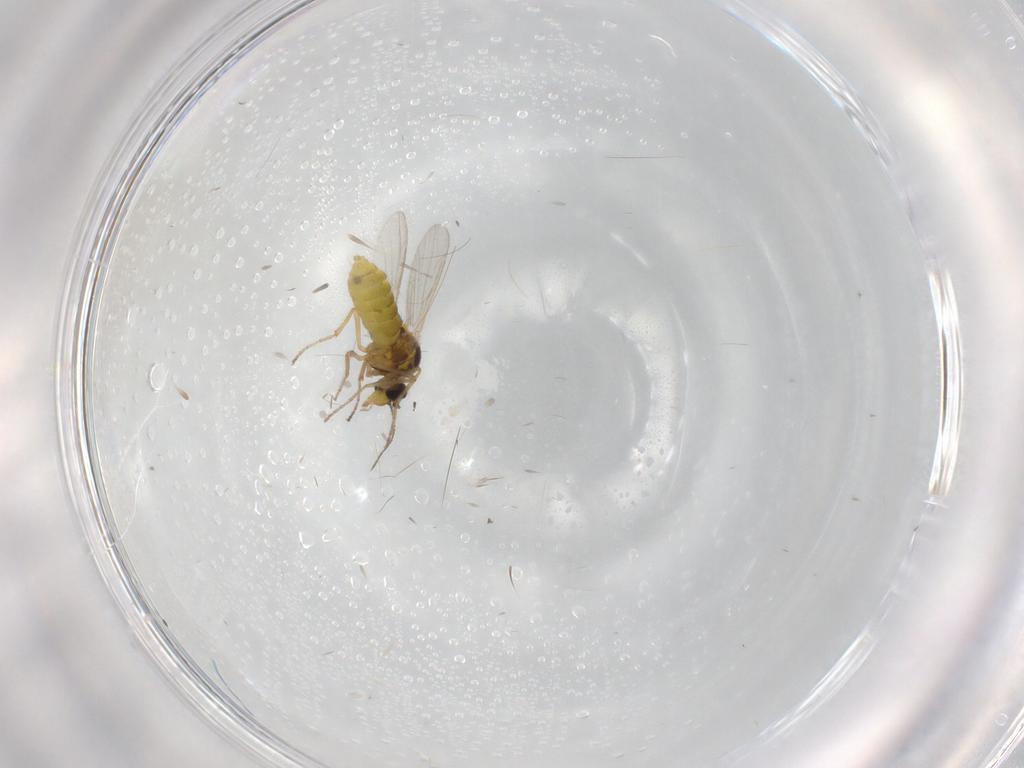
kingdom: Animalia
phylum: Arthropoda
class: Insecta
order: Diptera
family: Ceratopogonidae
